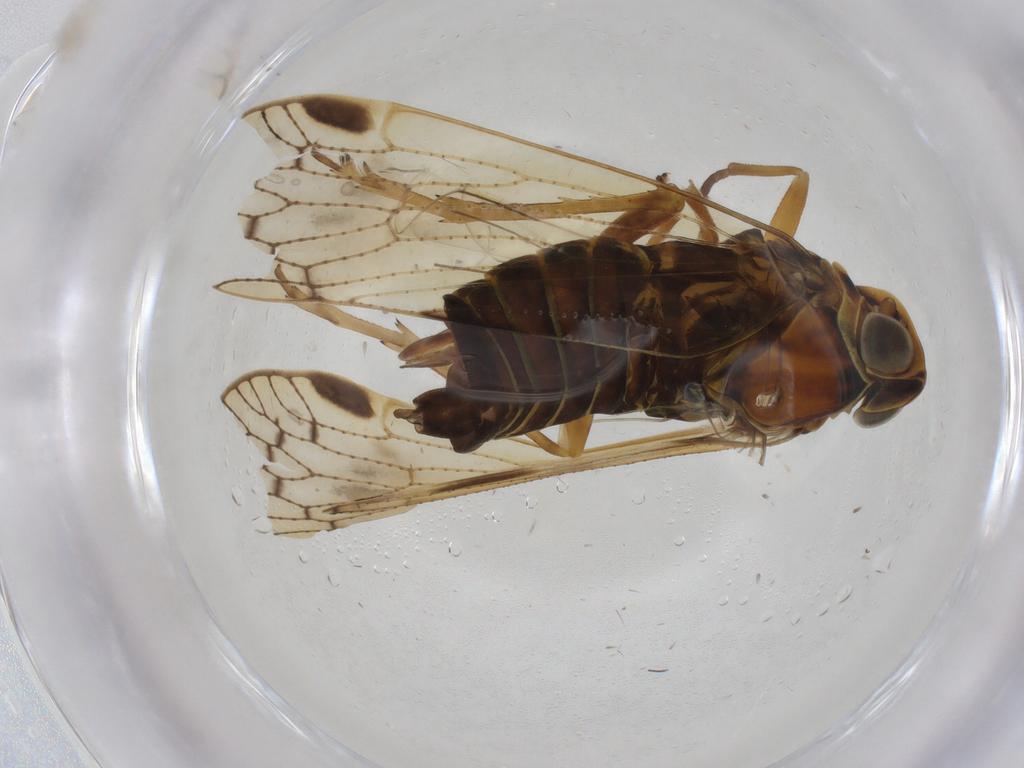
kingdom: Animalia
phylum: Arthropoda
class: Insecta
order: Hemiptera
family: Cixiidae
